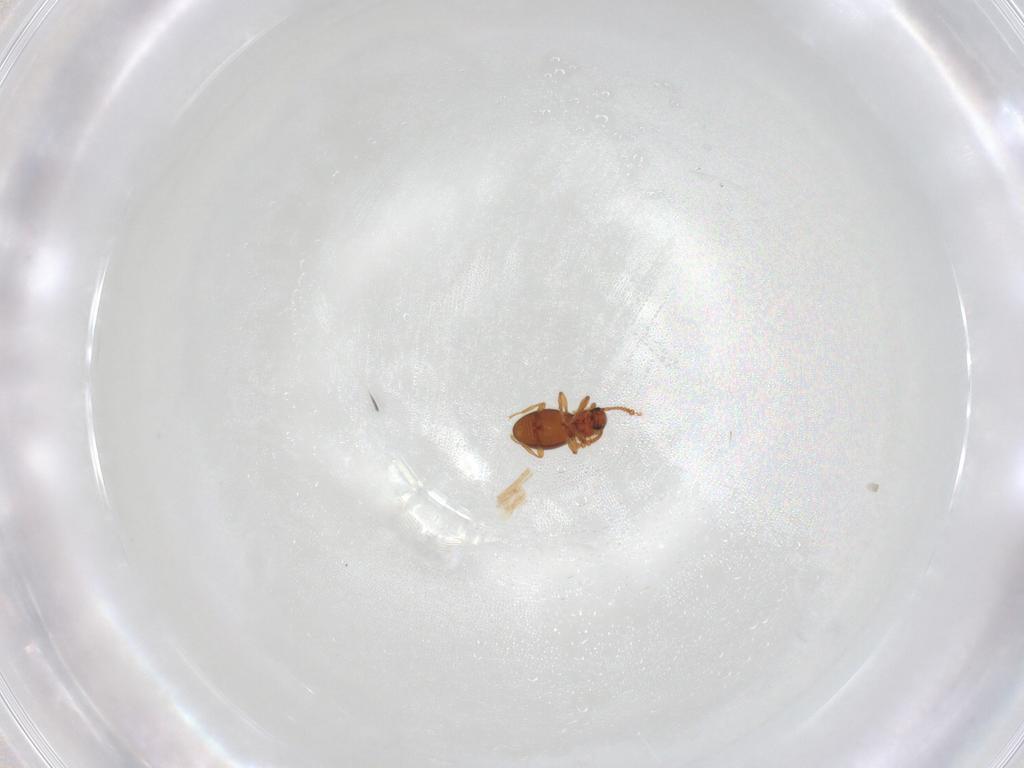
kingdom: Animalia
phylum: Arthropoda
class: Insecta
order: Coleoptera
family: Staphylinidae
